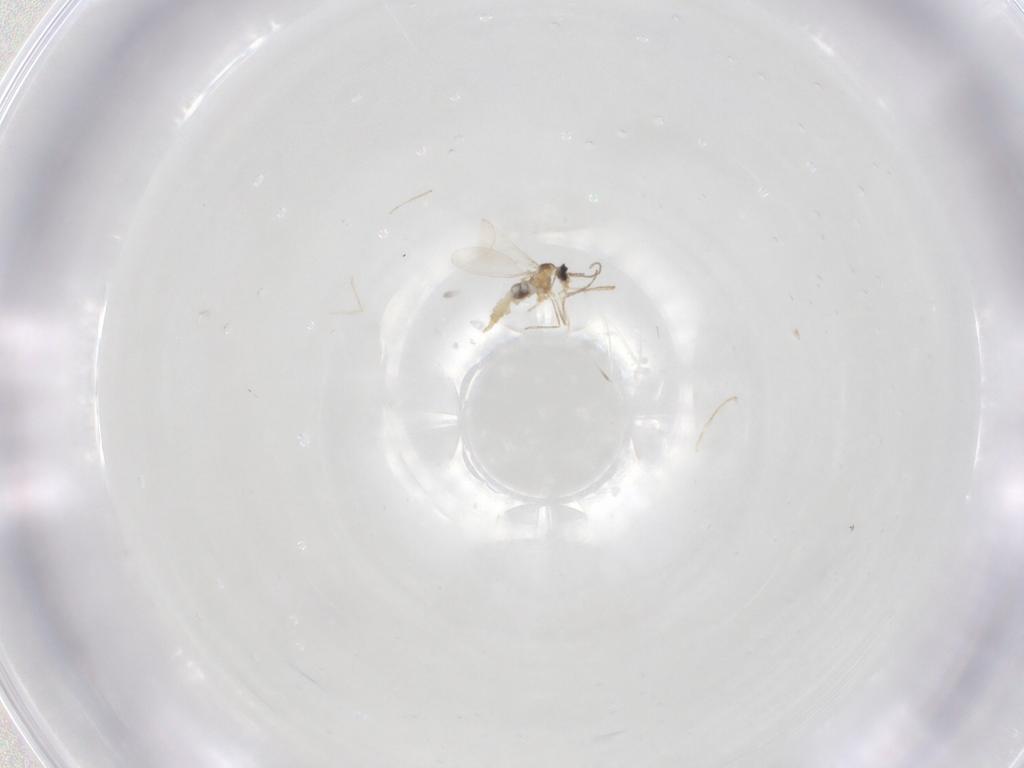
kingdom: Animalia
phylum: Arthropoda
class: Insecta
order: Diptera
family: Cecidomyiidae
